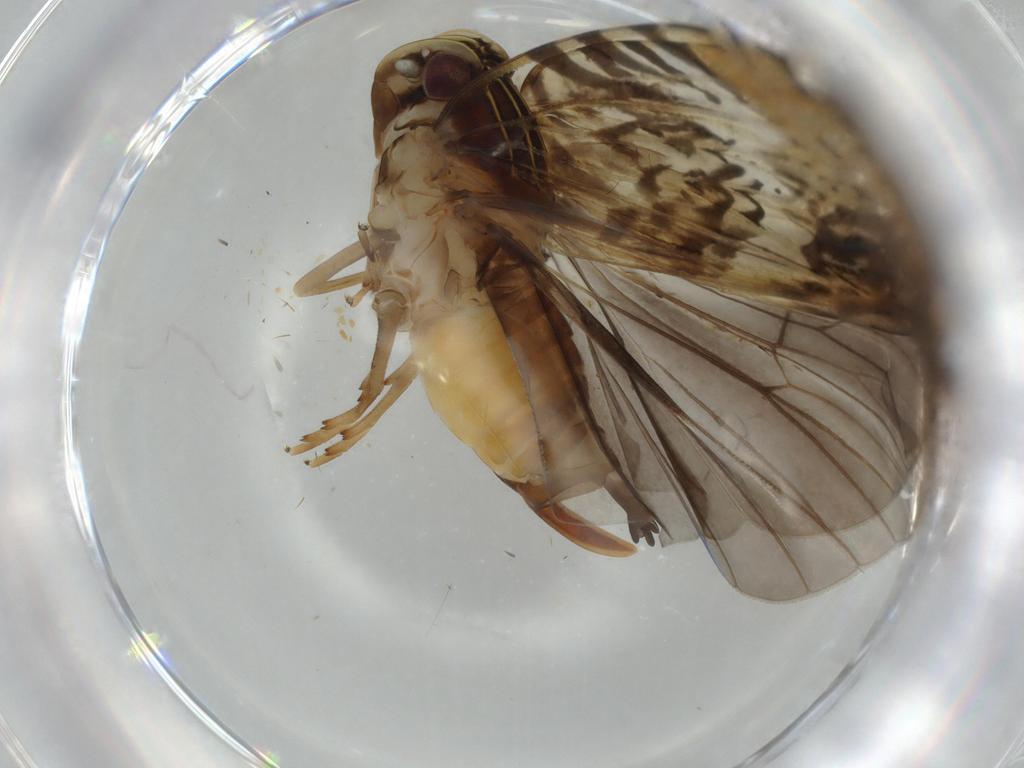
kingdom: Animalia
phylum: Arthropoda
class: Insecta
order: Hemiptera
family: Cixiidae
